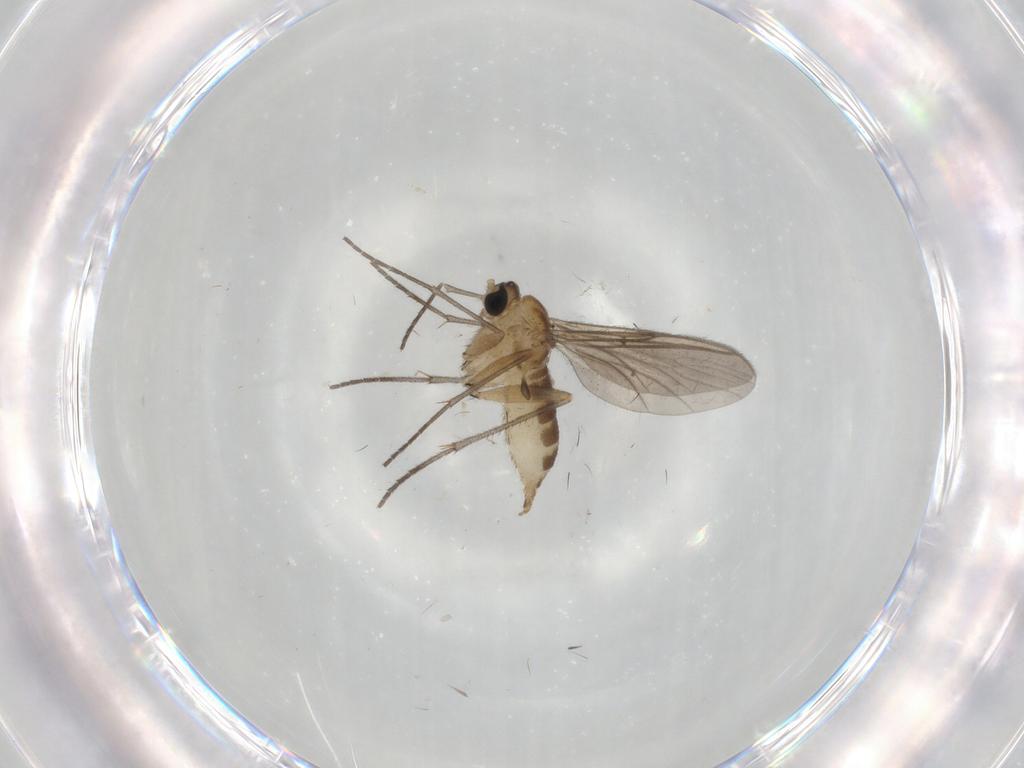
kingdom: Animalia
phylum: Arthropoda
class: Insecta
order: Diptera
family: Sciaridae
